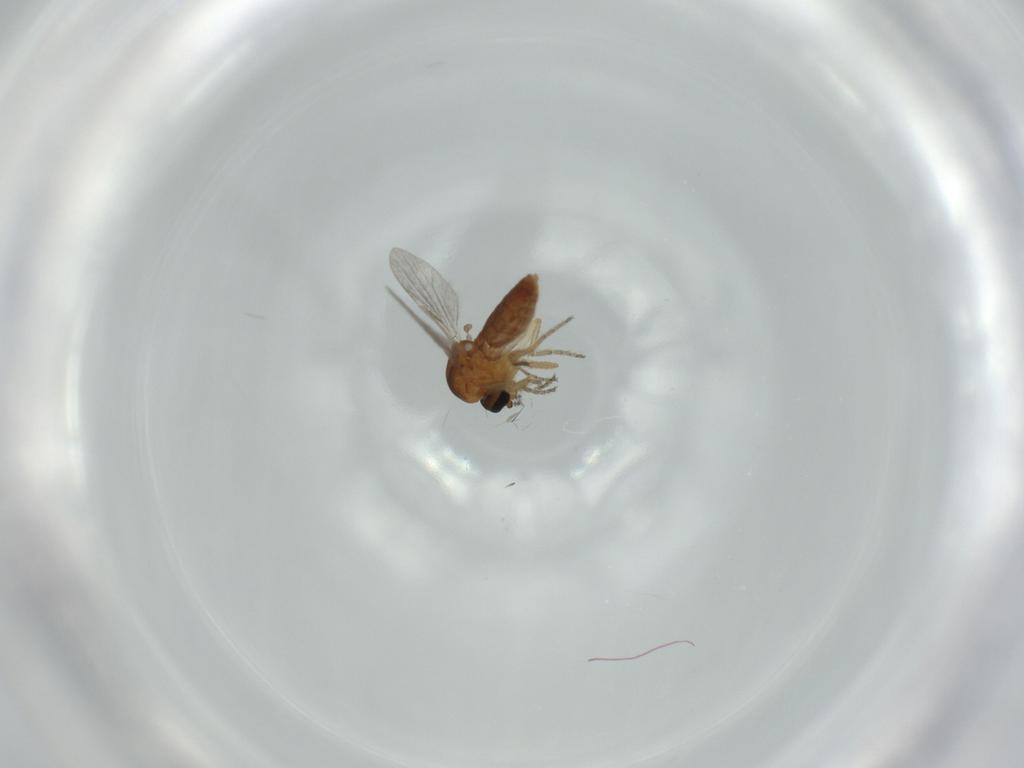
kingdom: Animalia
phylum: Arthropoda
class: Insecta
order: Diptera
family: Ceratopogonidae
